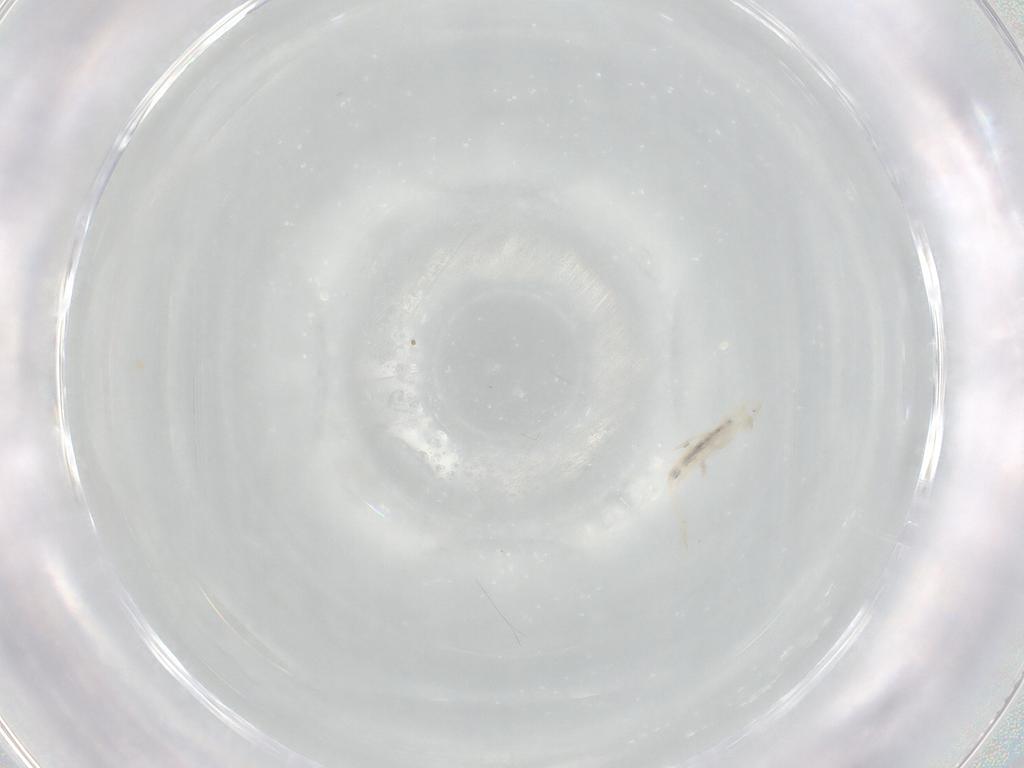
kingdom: Animalia
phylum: Arthropoda
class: Collembola
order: Entomobryomorpha
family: Entomobryidae
